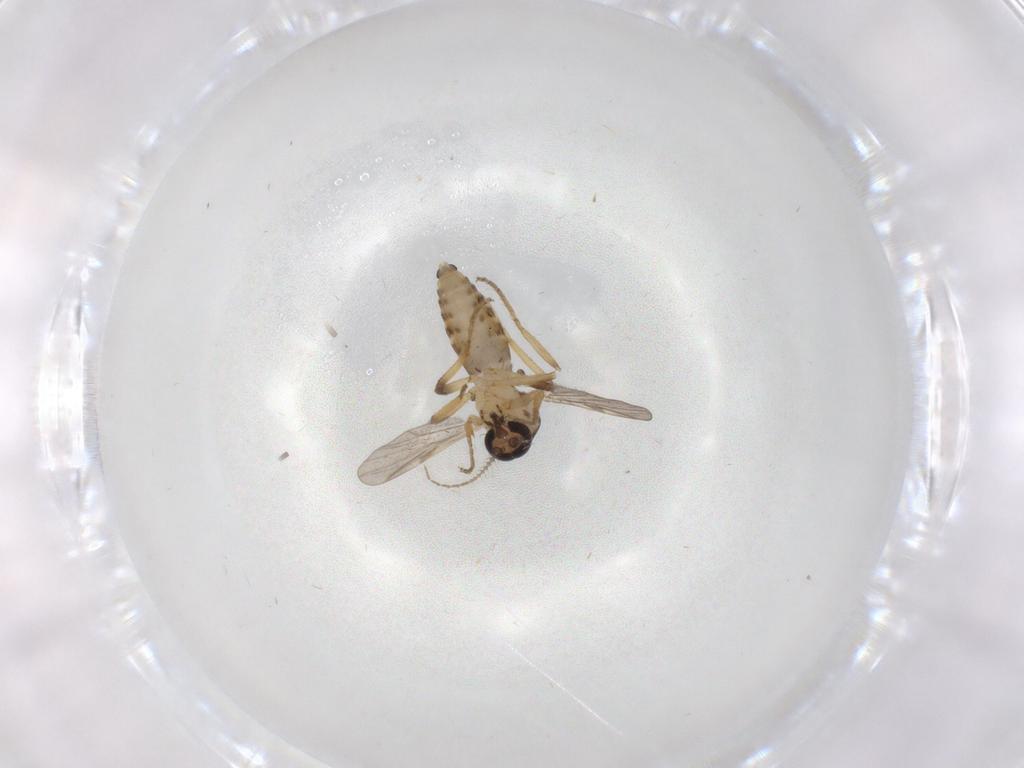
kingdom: Animalia
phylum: Arthropoda
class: Insecta
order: Diptera
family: Ceratopogonidae
